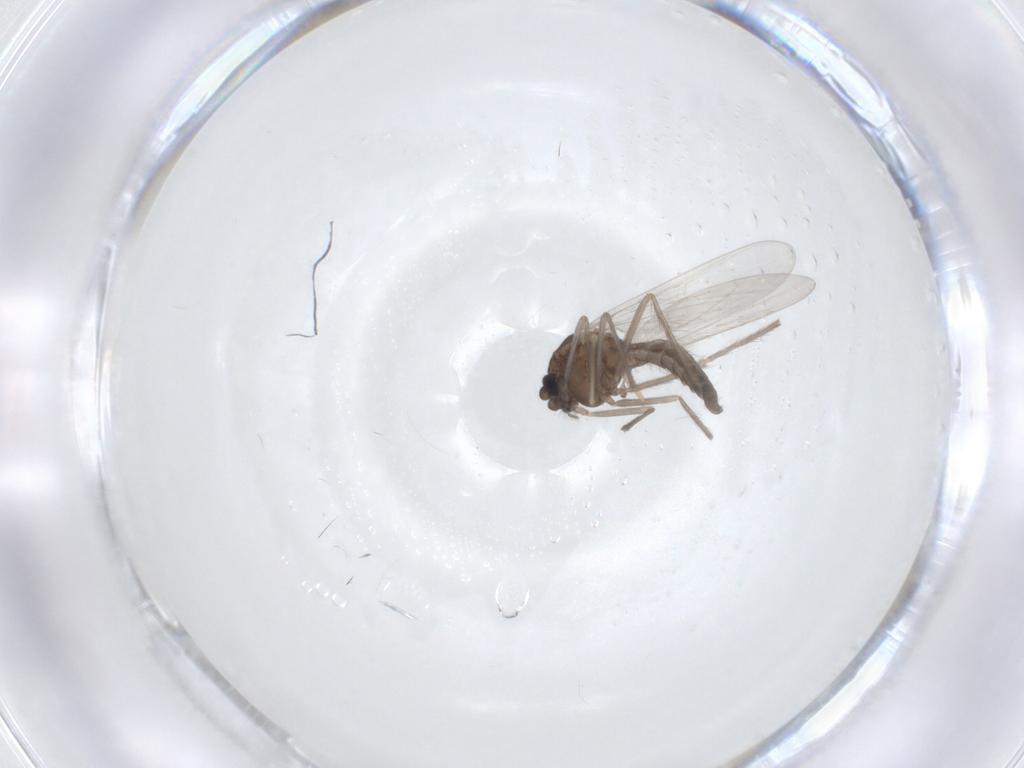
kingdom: Animalia
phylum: Arthropoda
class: Insecta
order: Diptera
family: Chironomidae
